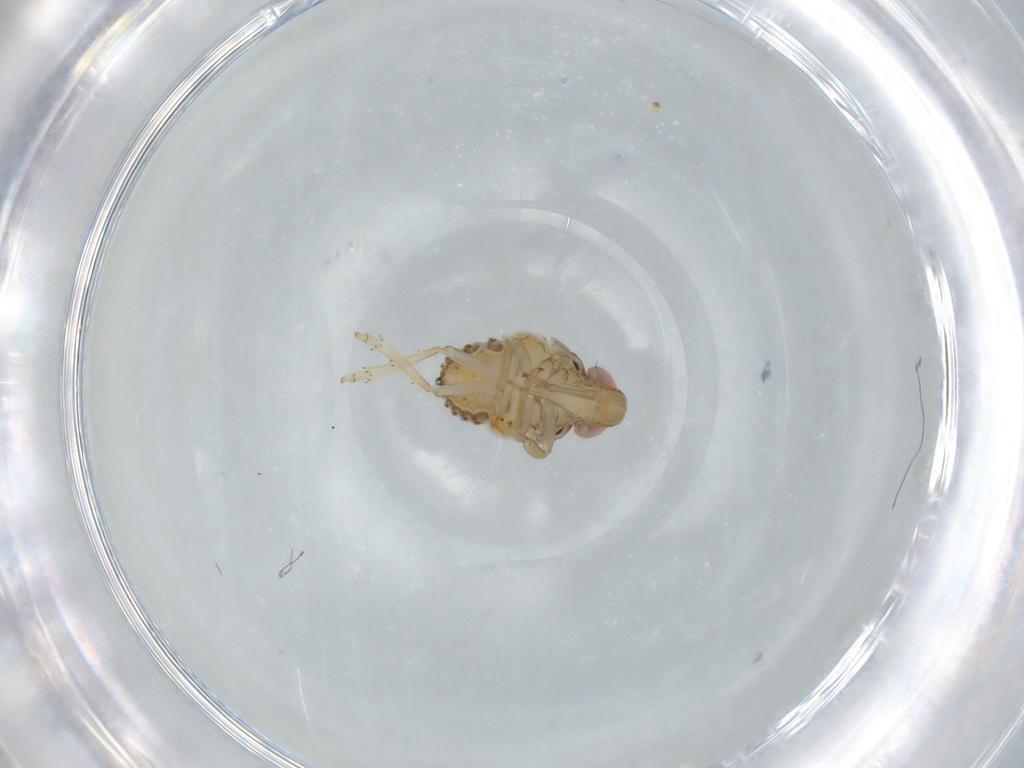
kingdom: Animalia
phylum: Arthropoda
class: Insecta
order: Hemiptera
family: Issidae
